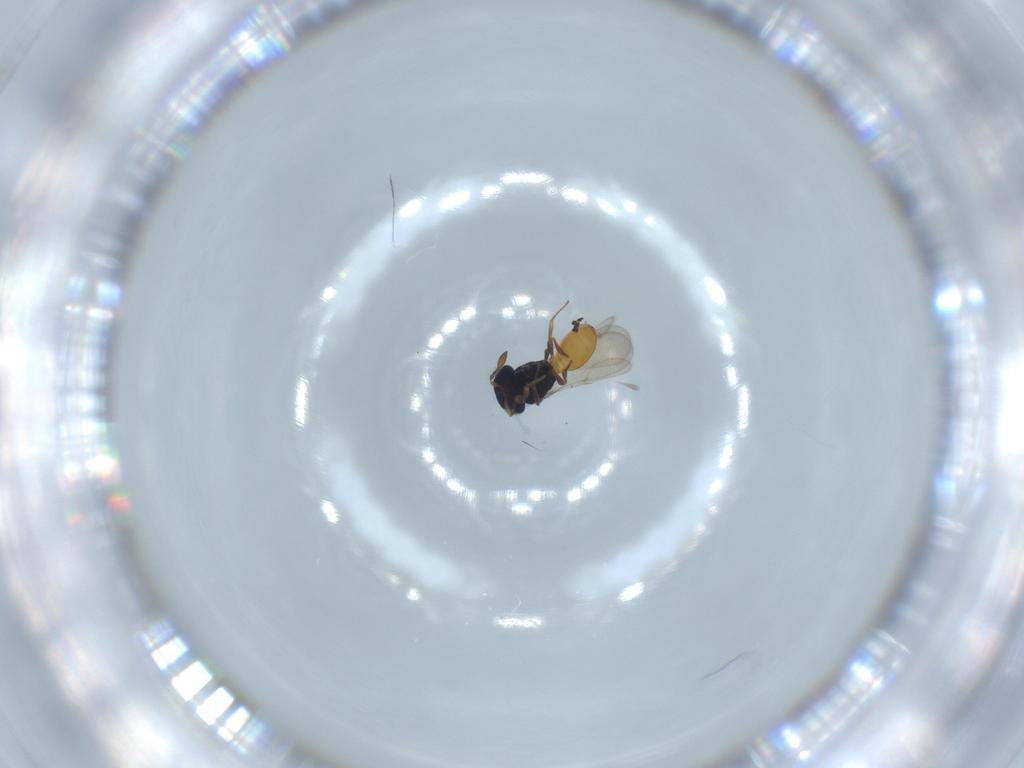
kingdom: Animalia
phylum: Arthropoda
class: Insecta
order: Hymenoptera
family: Scelionidae
